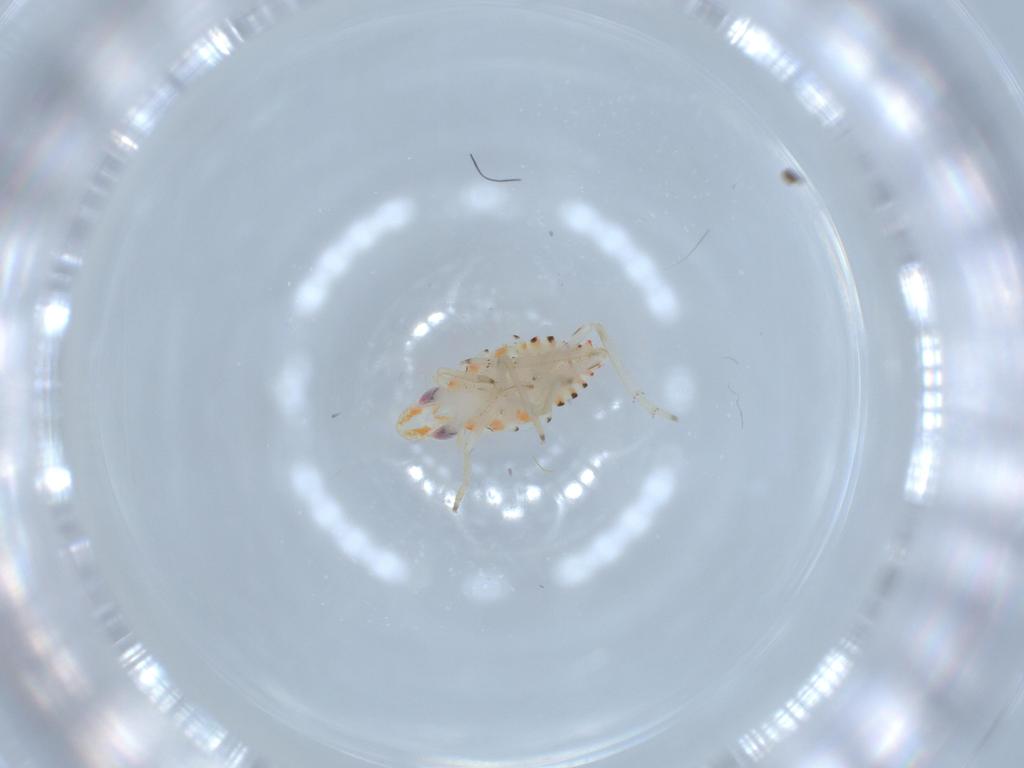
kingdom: Animalia
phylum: Arthropoda
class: Insecta
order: Hemiptera
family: Tropiduchidae
